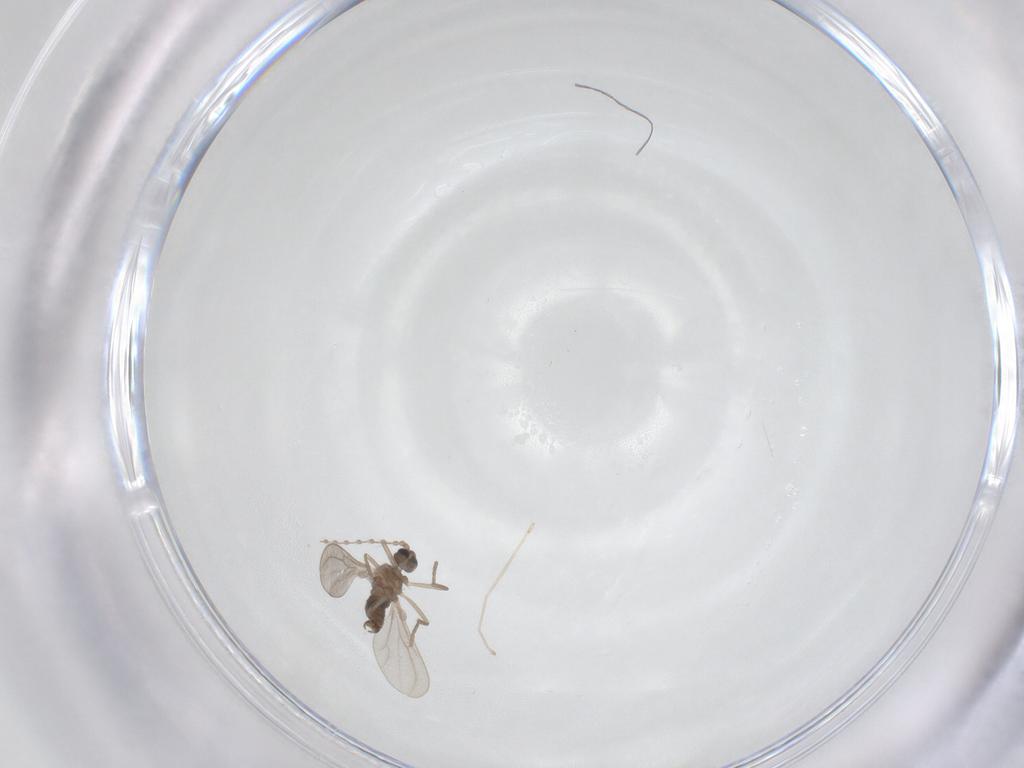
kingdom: Animalia
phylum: Arthropoda
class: Insecta
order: Diptera
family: Cecidomyiidae
